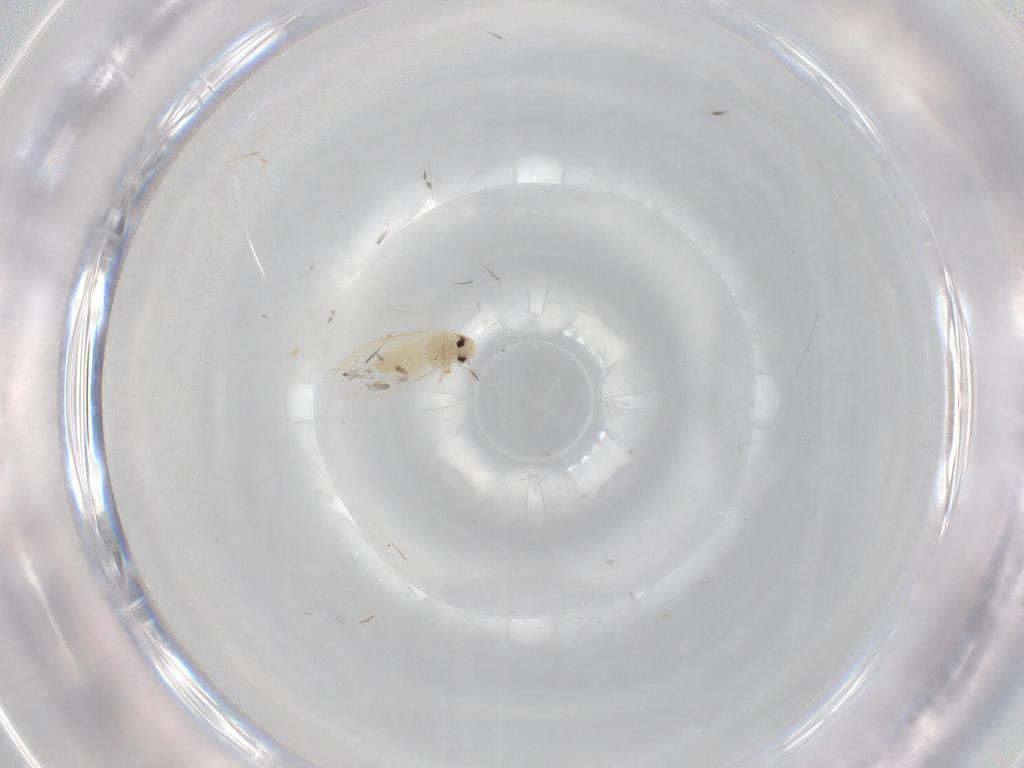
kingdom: Animalia
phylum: Arthropoda
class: Insecta
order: Hemiptera
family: Aleyrodidae
